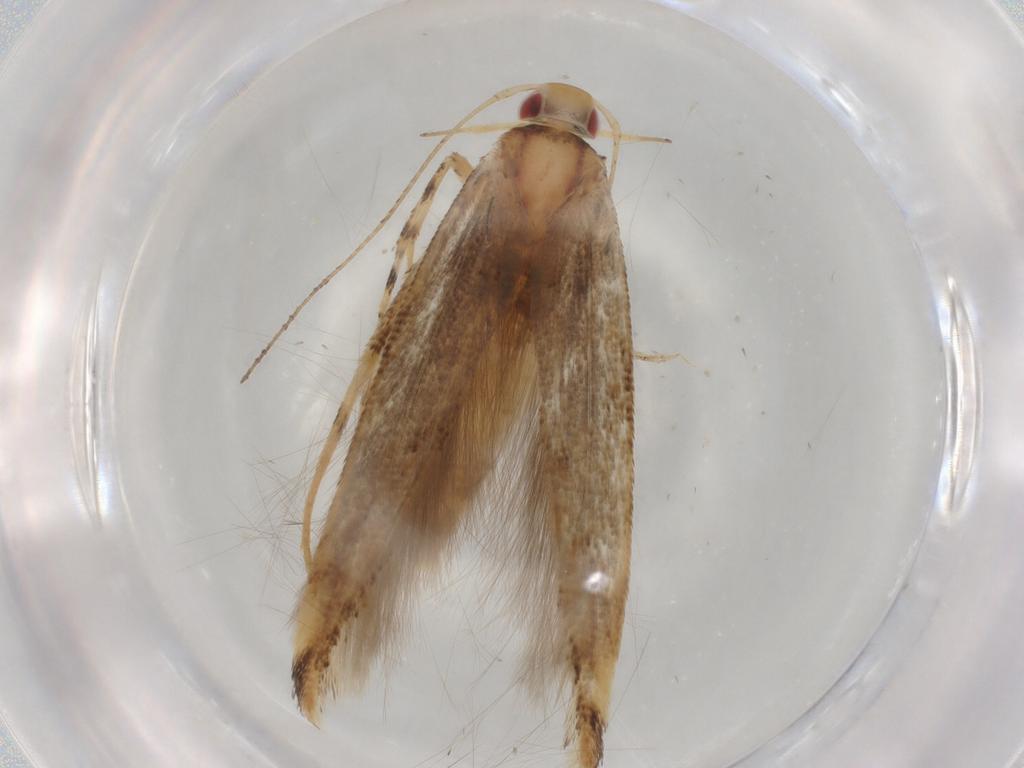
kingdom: Animalia
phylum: Arthropoda
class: Insecta
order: Lepidoptera
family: Cosmopterigidae
